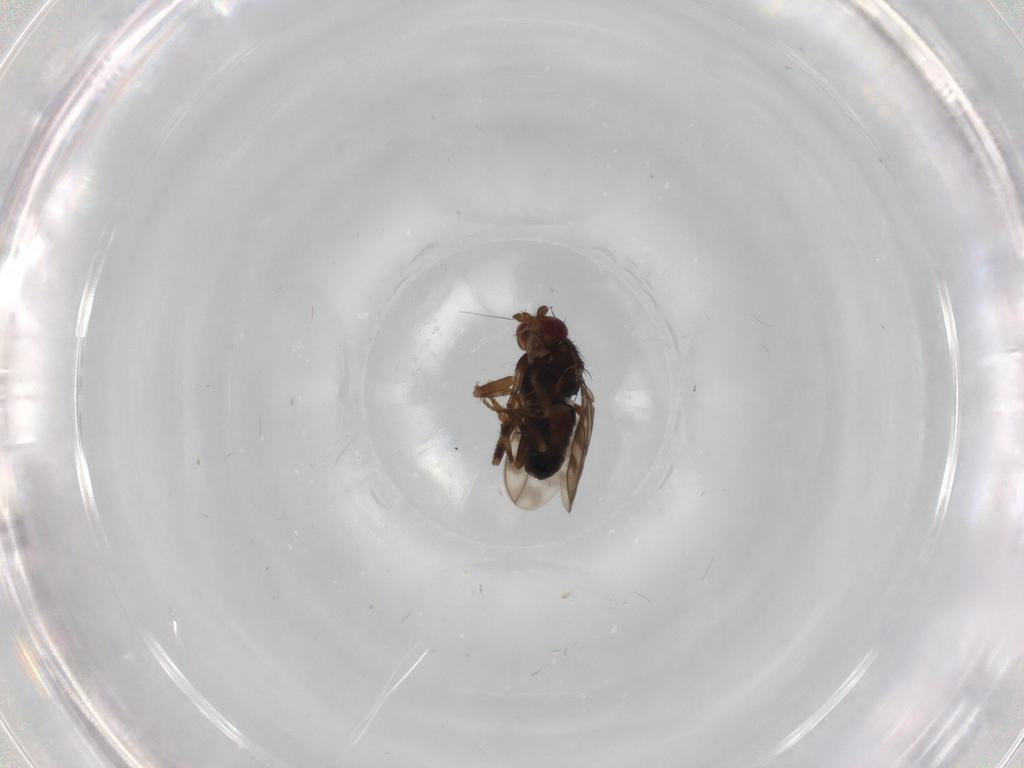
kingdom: Animalia
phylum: Arthropoda
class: Insecta
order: Diptera
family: Sphaeroceridae
